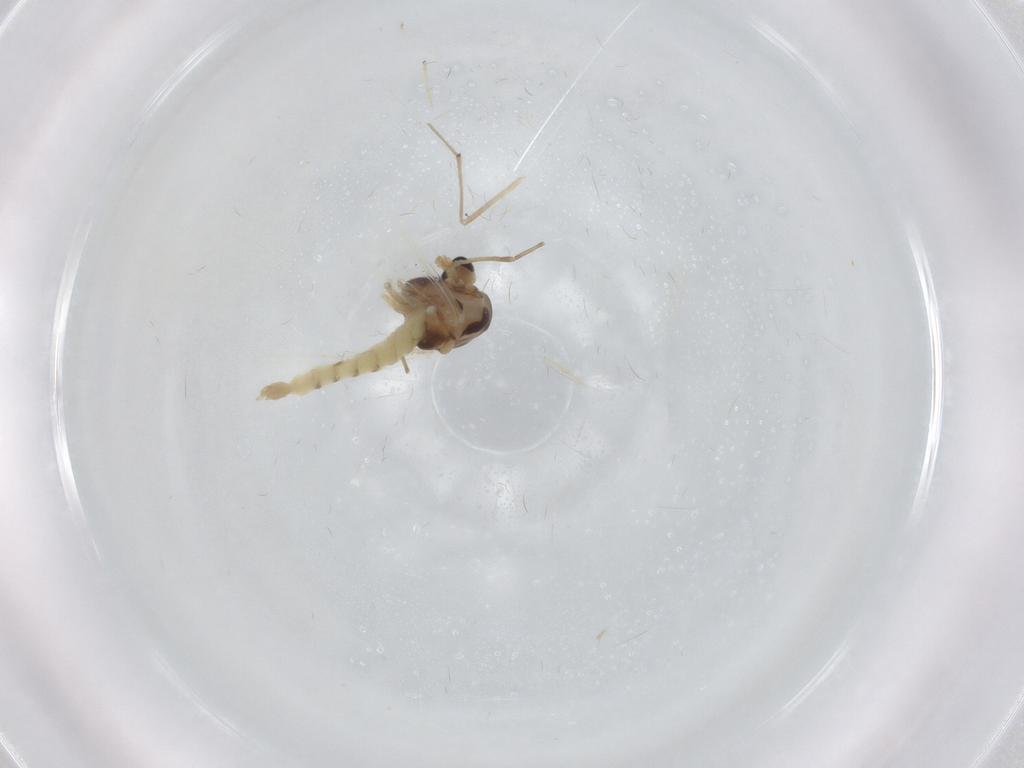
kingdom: Animalia
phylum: Arthropoda
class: Insecta
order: Diptera
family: Chironomidae
